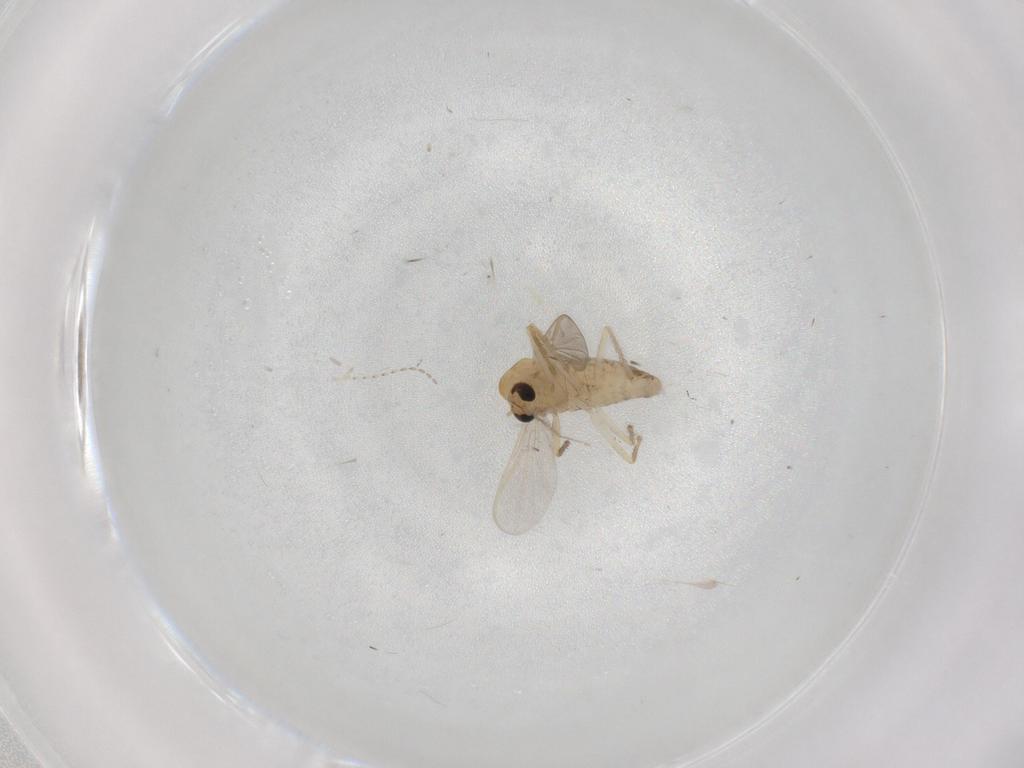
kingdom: Animalia
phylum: Arthropoda
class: Insecta
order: Diptera
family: Chironomidae
